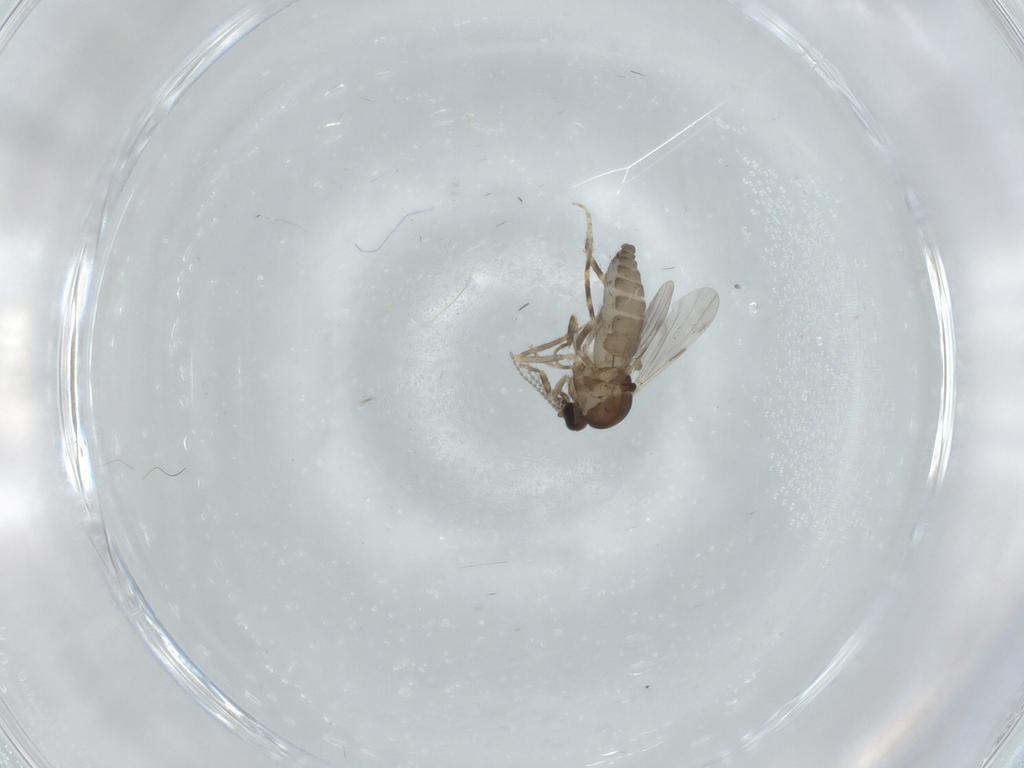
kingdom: Animalia
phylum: Arthropoda
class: Insecta
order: Diptera
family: Ceratopogonidae
